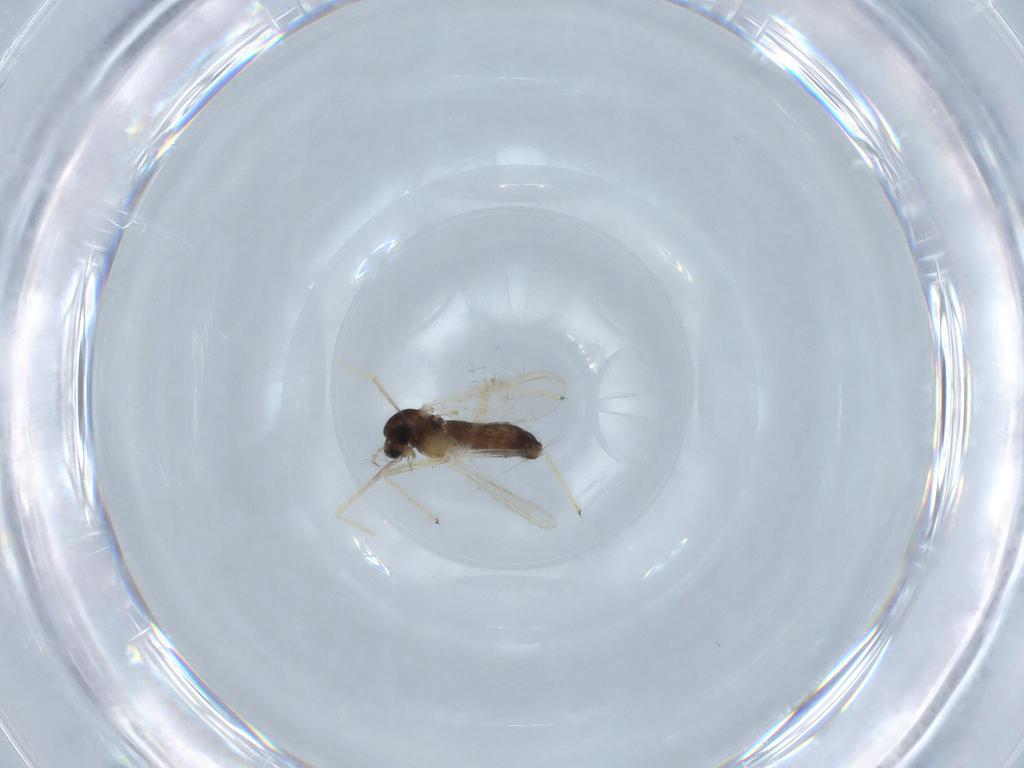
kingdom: Animalia
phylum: Arthropoda
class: Insecta
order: Diptera
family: Chironomidae
